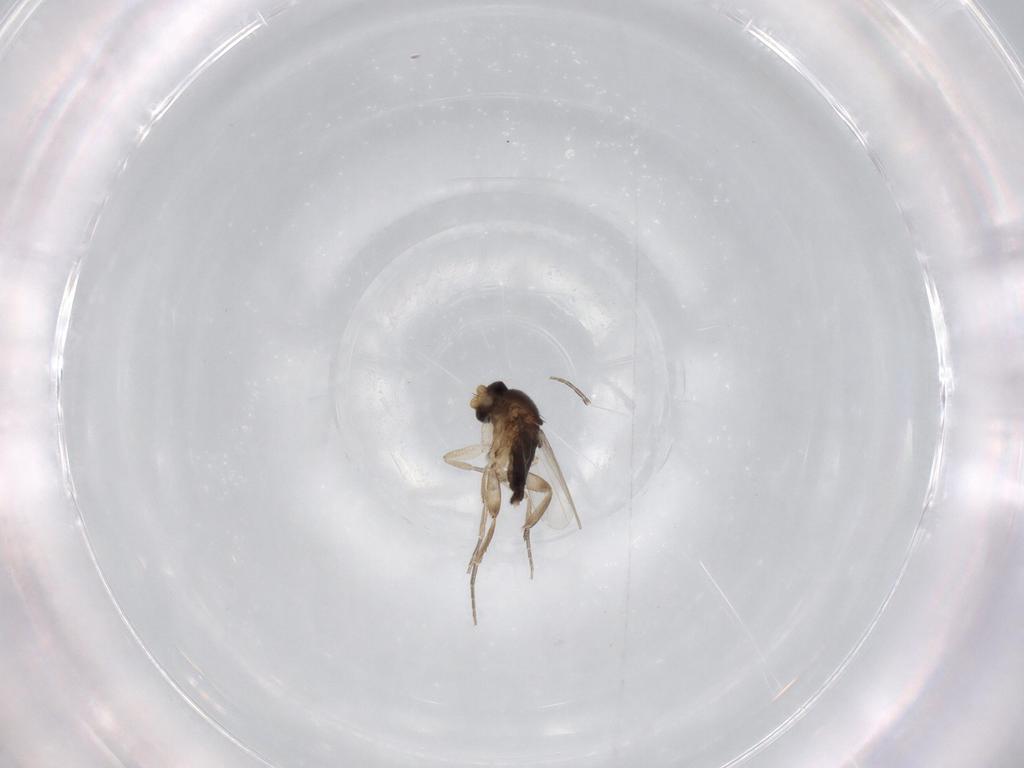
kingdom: Animalia
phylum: Arthropoda
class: Insecta
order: Diptera
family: Phoridae
